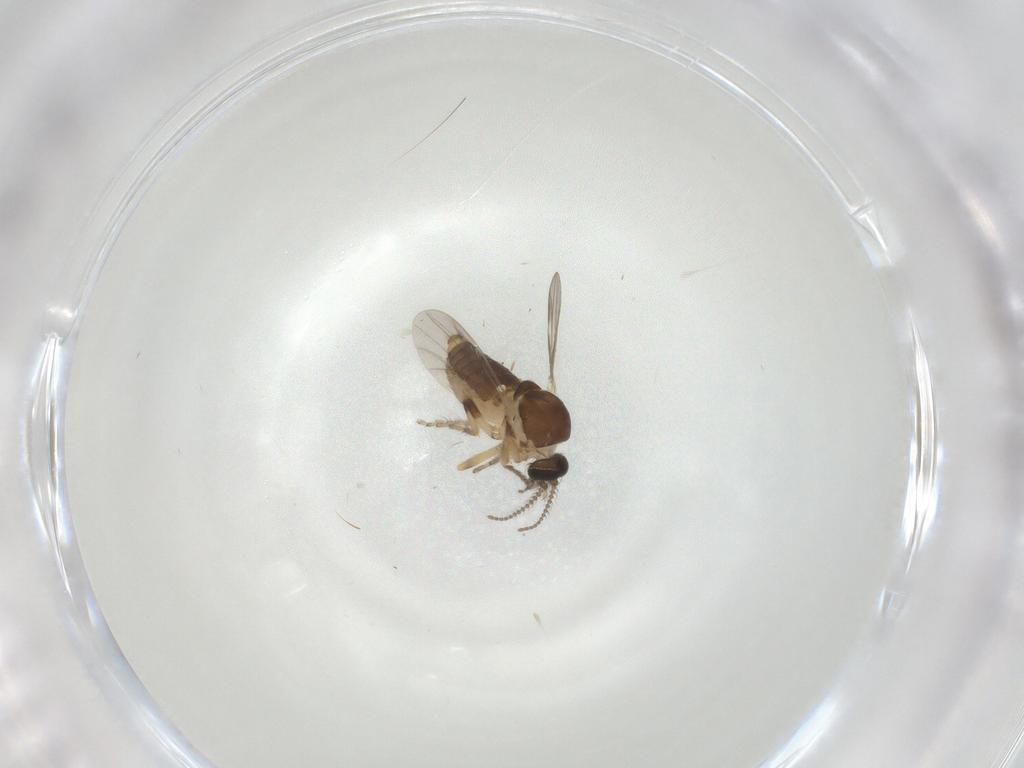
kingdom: Animalia
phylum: Arthropoda
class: Insecta
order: Diptera
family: Ceratopogonidae
